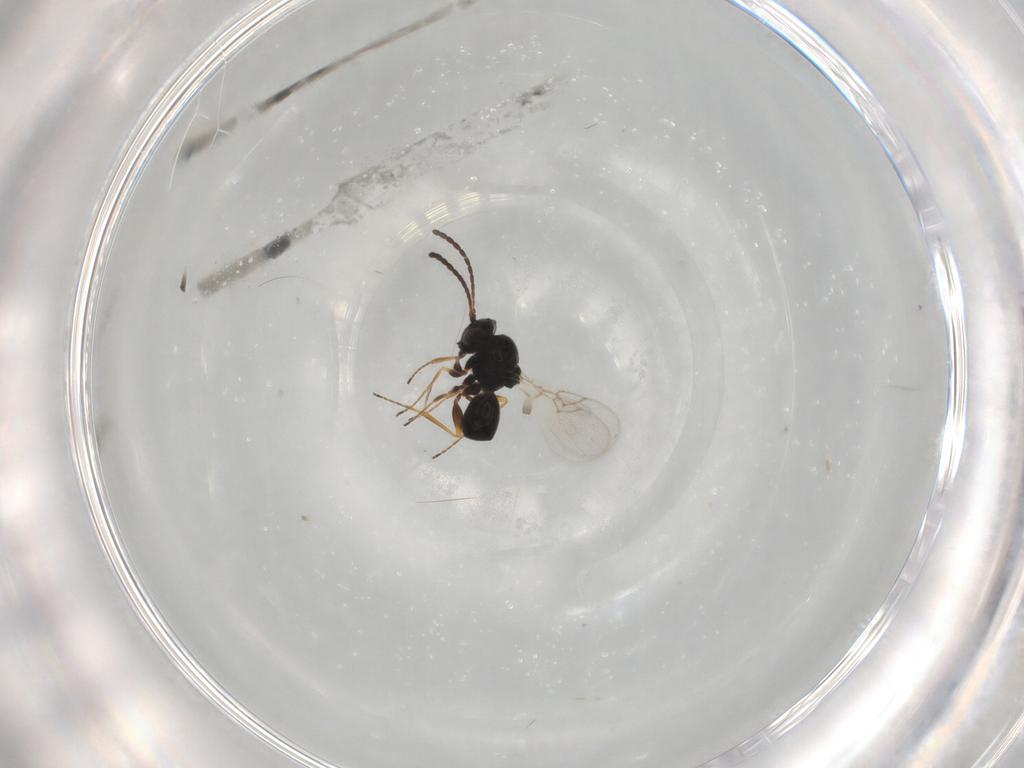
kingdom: Animalia
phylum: Arthropoda
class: Insecta
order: Hymenoptera
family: Figitidae
